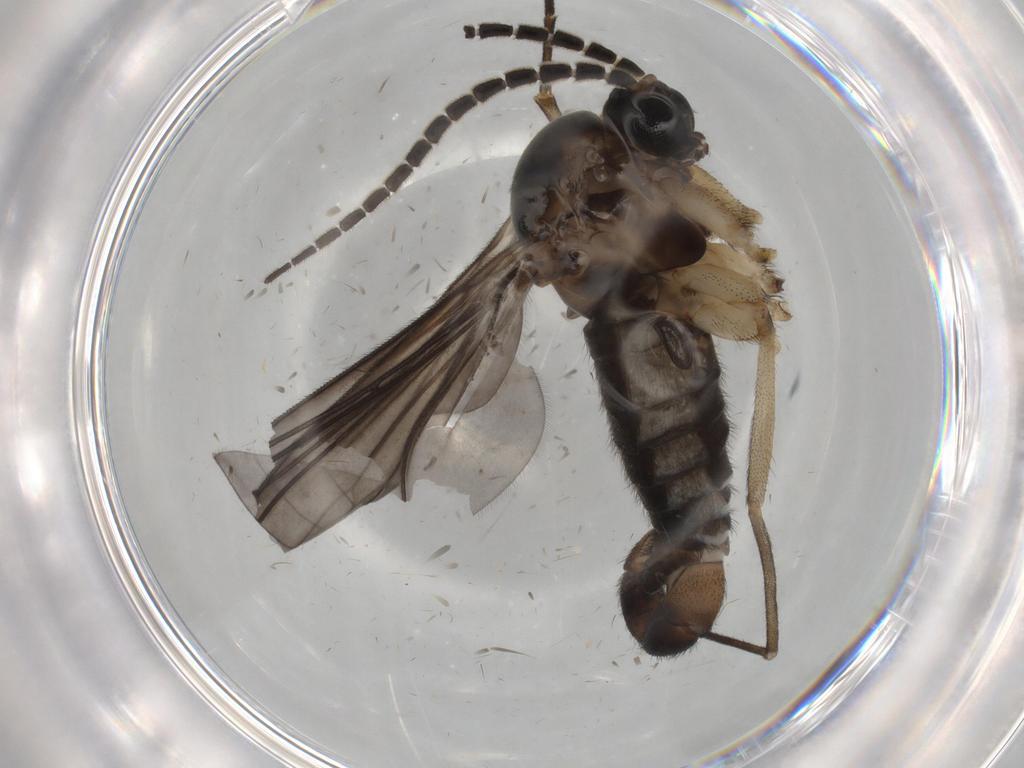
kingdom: Animalia
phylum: Arthropoda
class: Insecta
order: Diptera
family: Sciaridae
